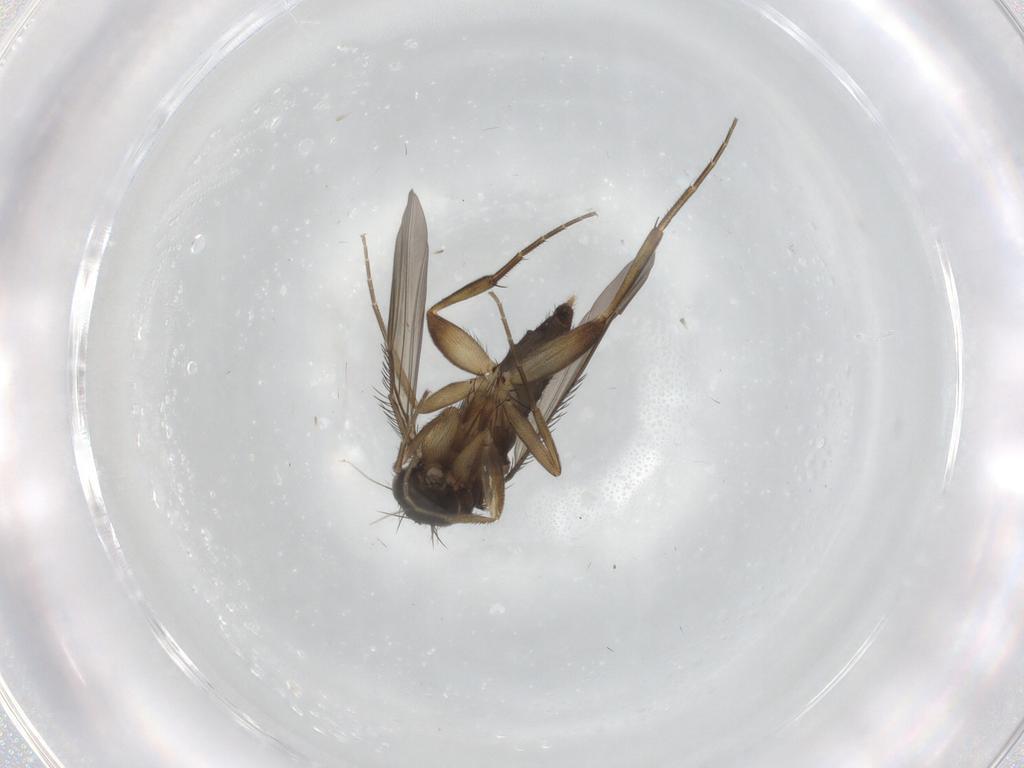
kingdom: Animalia
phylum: Arthropoda
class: Insecta
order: Diptera
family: Phoridae
